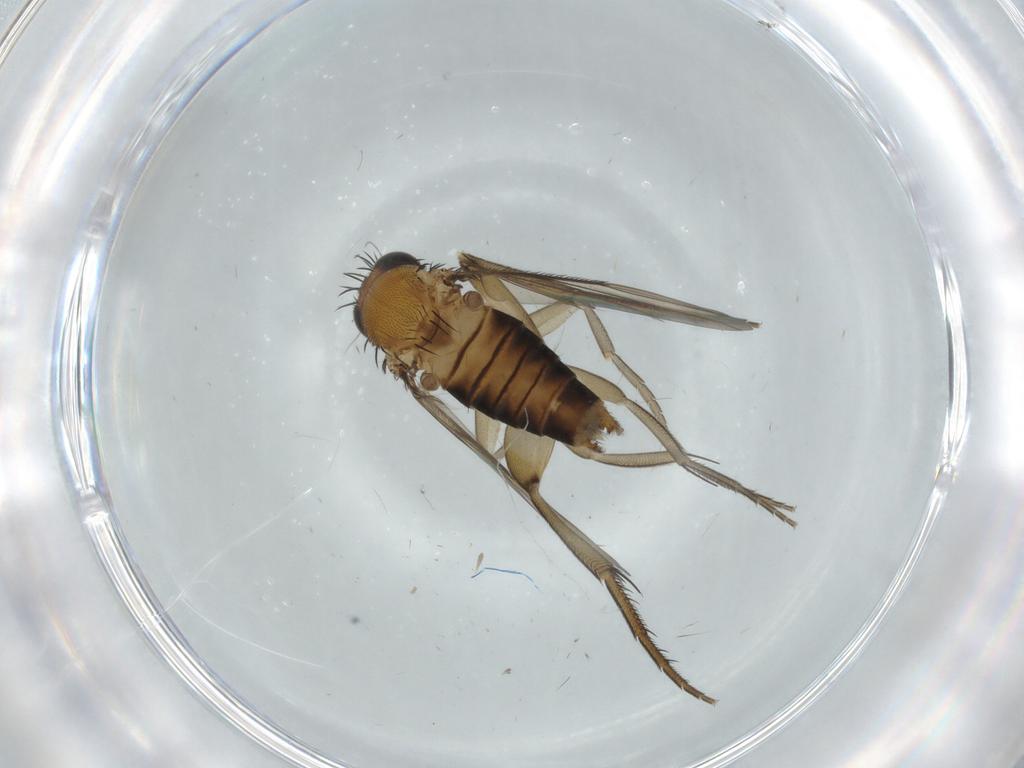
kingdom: Animalia
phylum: Arthropoda
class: Insecta
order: Diptera
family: Phoridae
